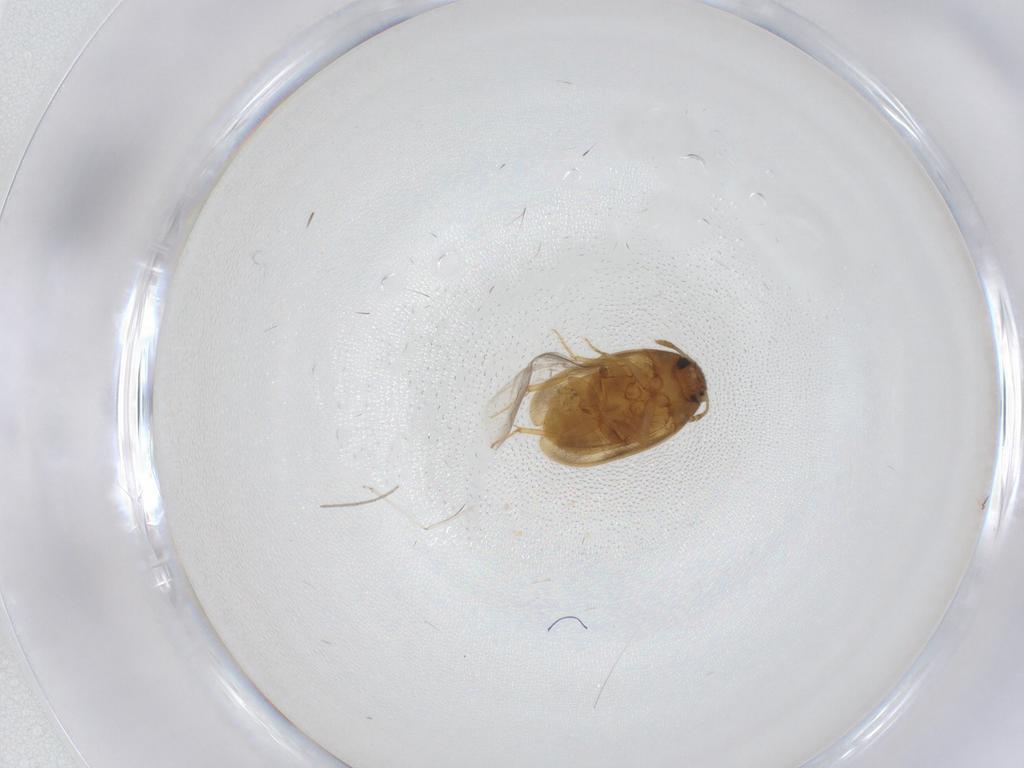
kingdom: Animalia
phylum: Arthropoda
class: Insecta
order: Coleoptera
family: Mycetophagidae
